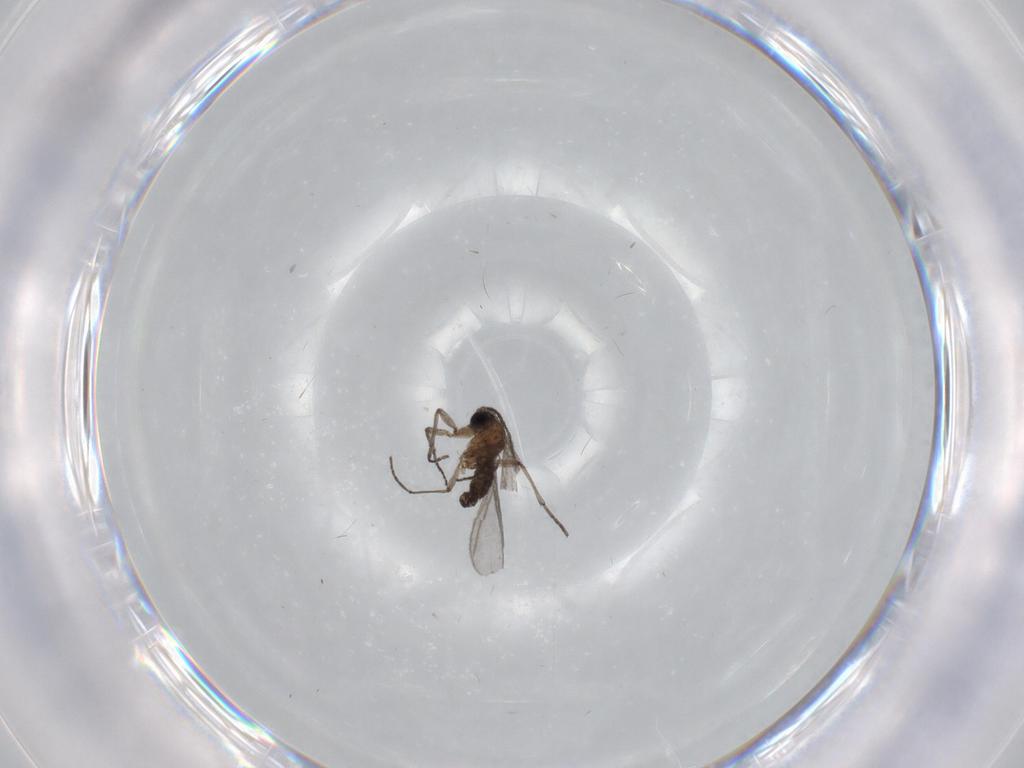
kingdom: Animalia
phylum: Arthropoda
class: Insecta
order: Diptera
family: Sciaridae
